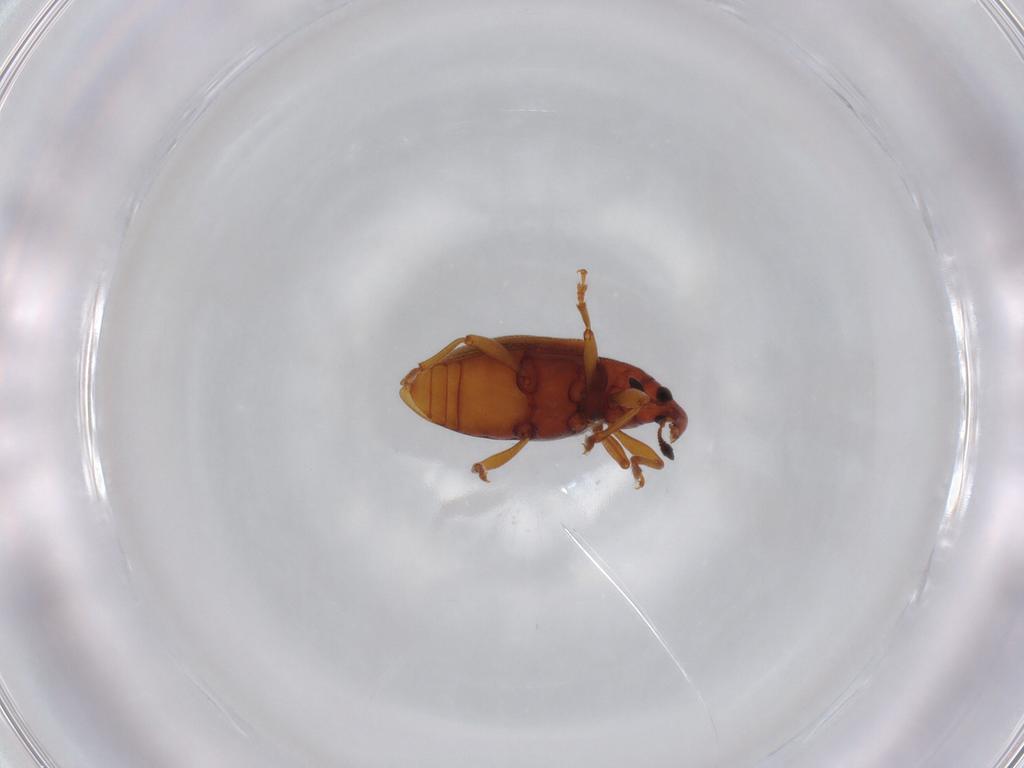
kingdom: Animalia
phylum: Arthropoda
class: Insecta
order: Coleoptera
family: Curculionidae
